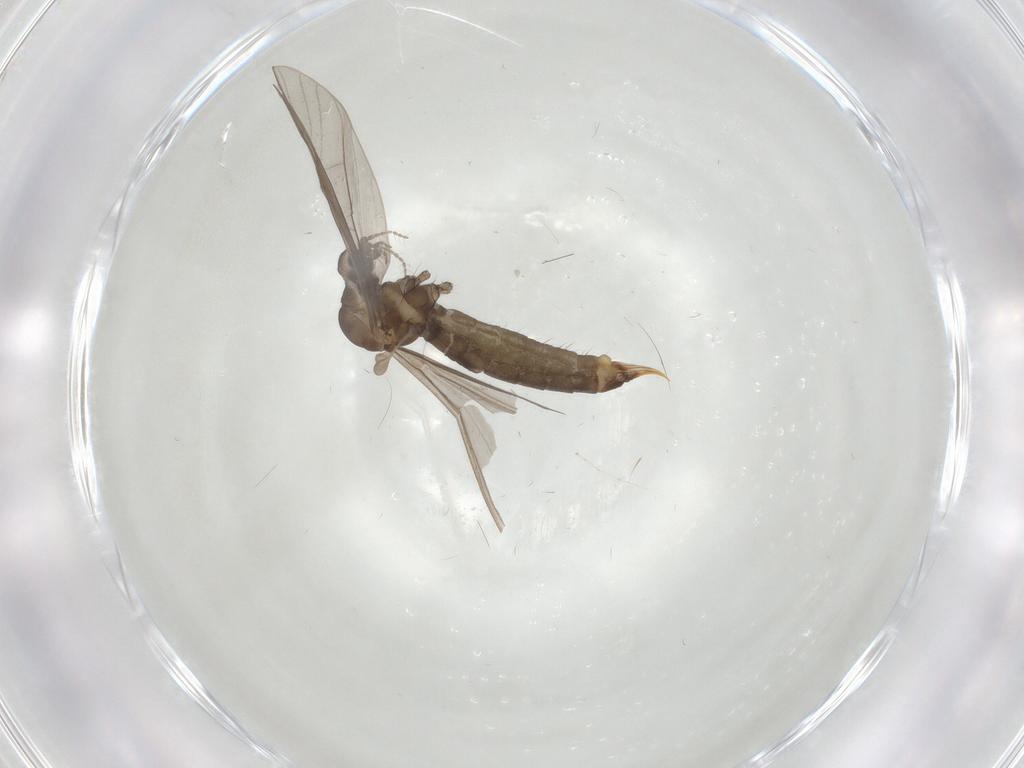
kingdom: Animalia
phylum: Arthropoda
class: Insecta
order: Diptera
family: Limoniidae
